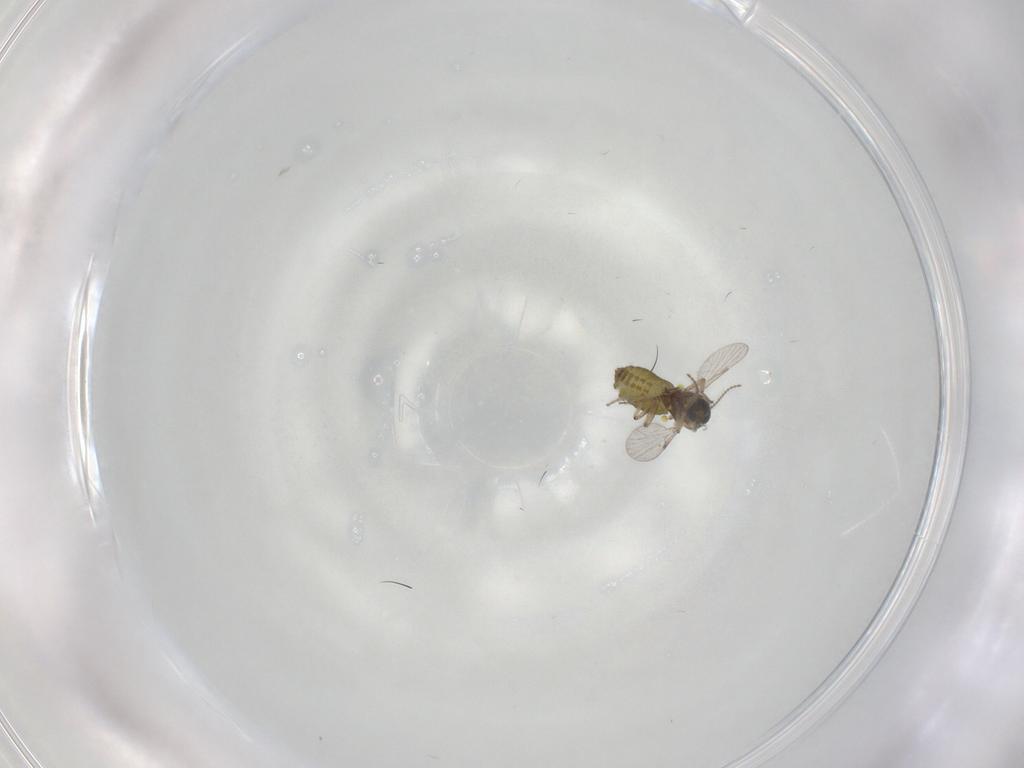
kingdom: Animalia
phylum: Arthropoda
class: Insecta
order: Diptera
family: Ceratopogonidae
